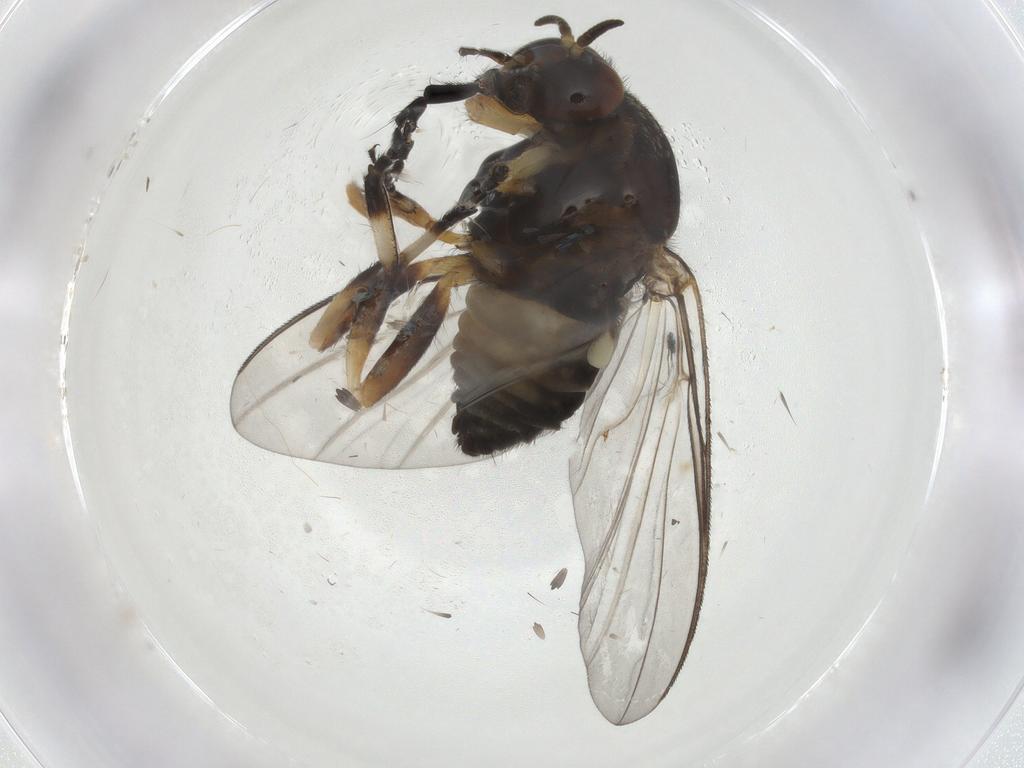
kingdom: Animalia
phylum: Arthropoda
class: Insecta
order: Diptera
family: Simuliidae
